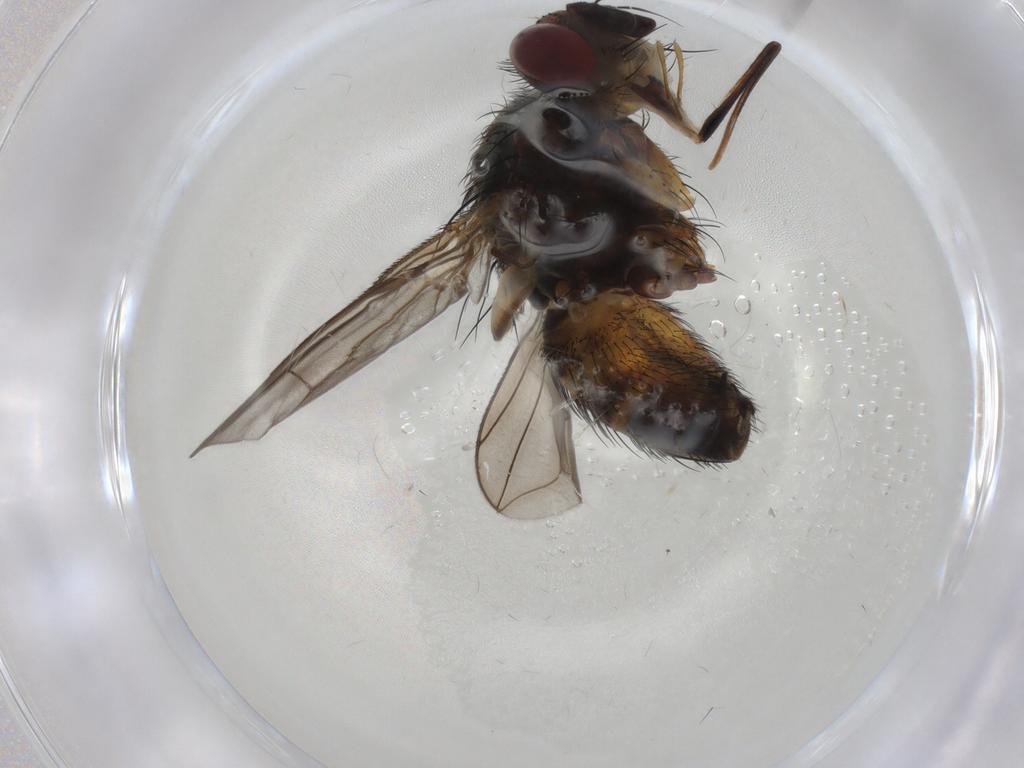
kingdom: Animalia
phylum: Arthropoda
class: Insecta
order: Diptera
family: Tachinidae
